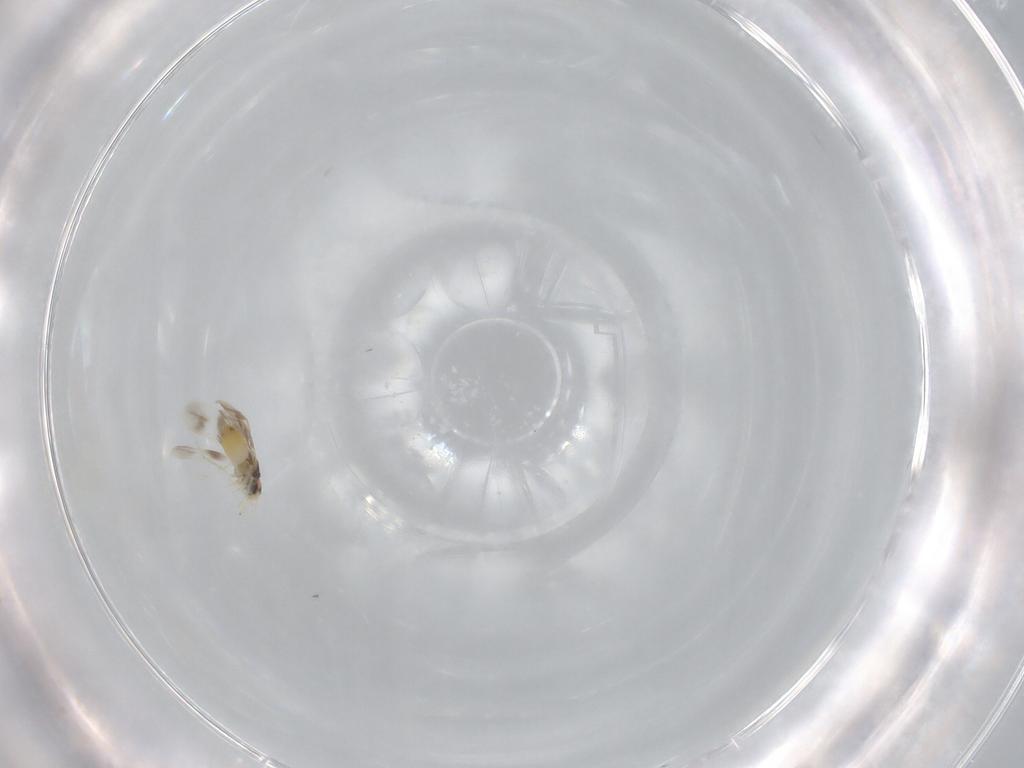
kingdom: Animalia
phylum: Arthropoda
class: Insecta
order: Hemiptera
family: Aleyrodidae
